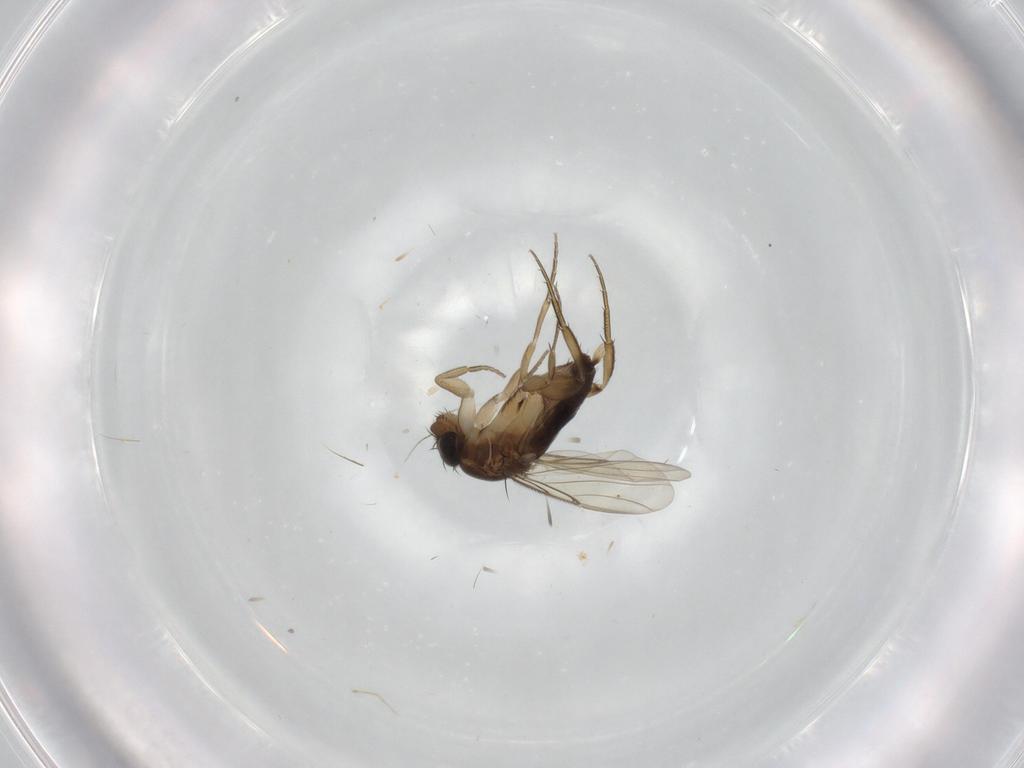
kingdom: Animalia
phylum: Arthropoda
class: Insecta
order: Diptera
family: Phoridae
